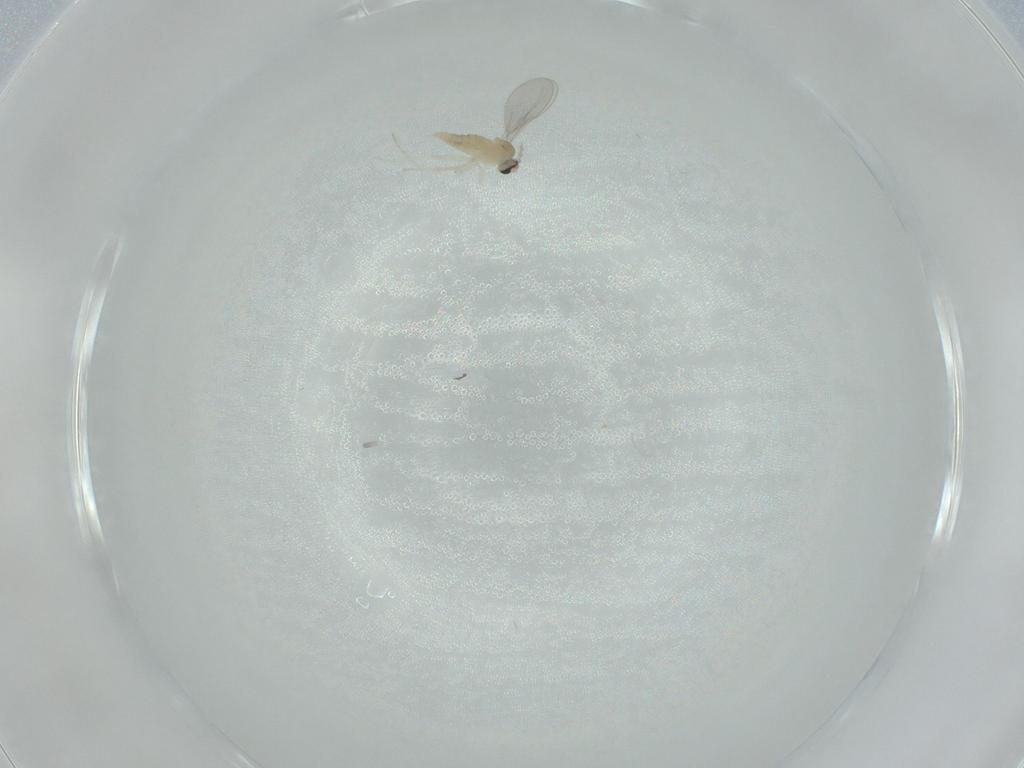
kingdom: Animalia
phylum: Arthropoda
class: Insecta
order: Diptera
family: Cecidomyiidae
